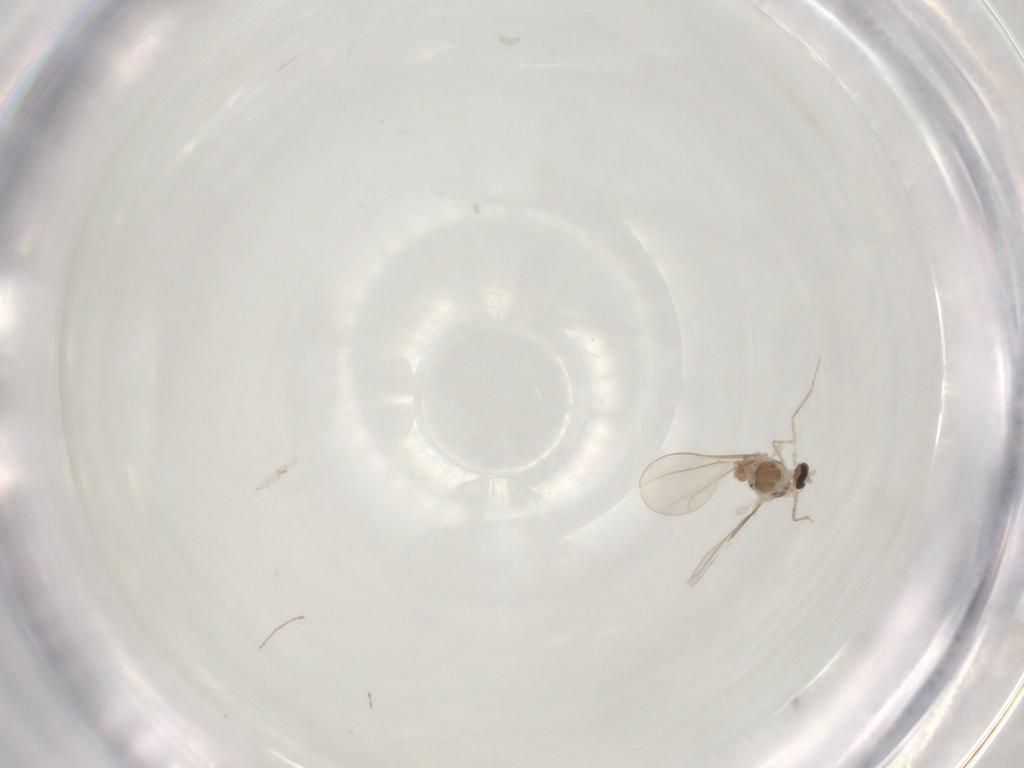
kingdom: Animalia
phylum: Arthropoda
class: Insecta
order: Diptera
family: Cecidomyiidae
